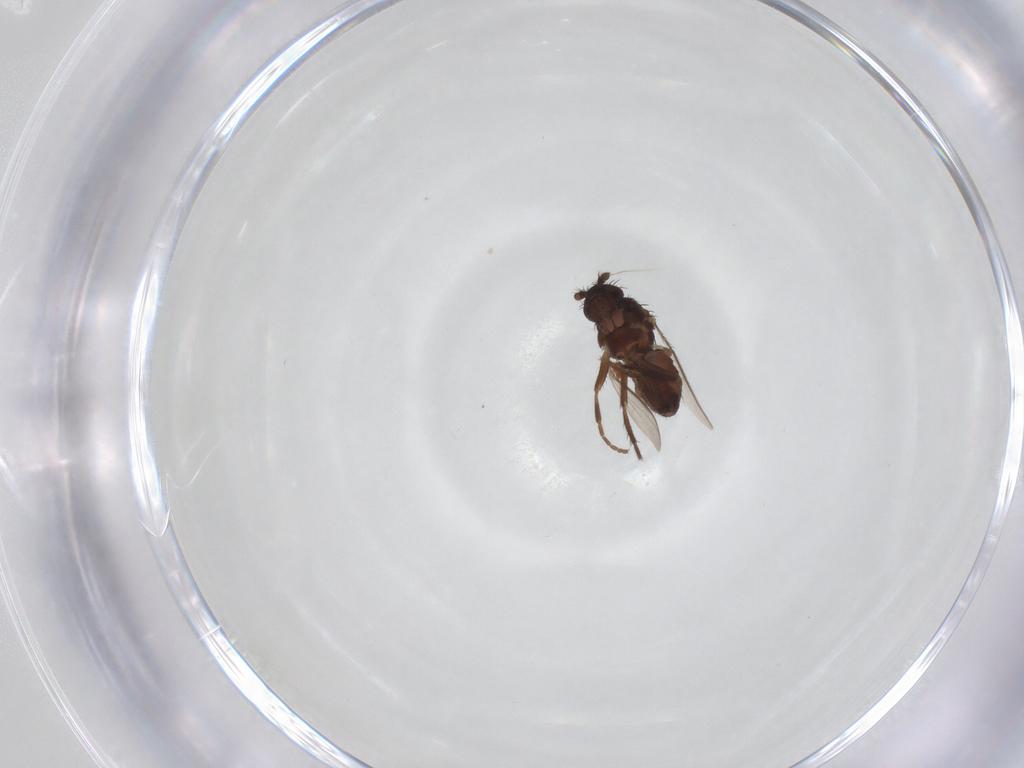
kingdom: Animalia
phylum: Arthropoda
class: Insecta
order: Diptera
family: Sphaeroceridae
